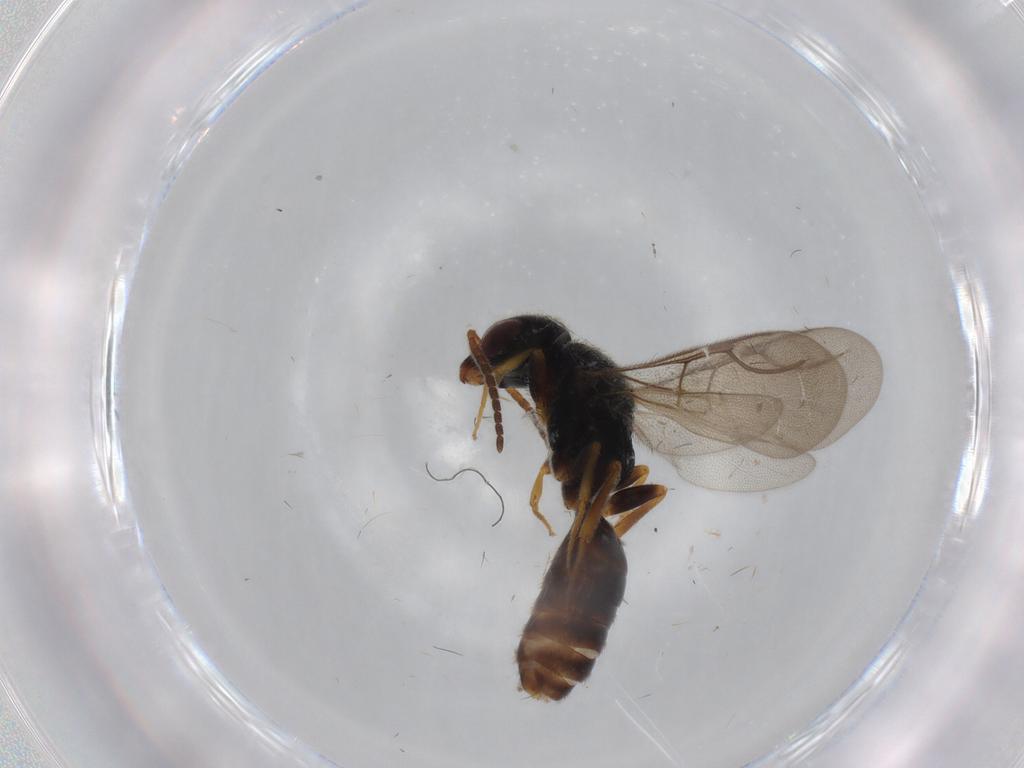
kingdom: Animalia
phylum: Arthropoda
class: Insecta
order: Hymenoptera
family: Bethylidae
